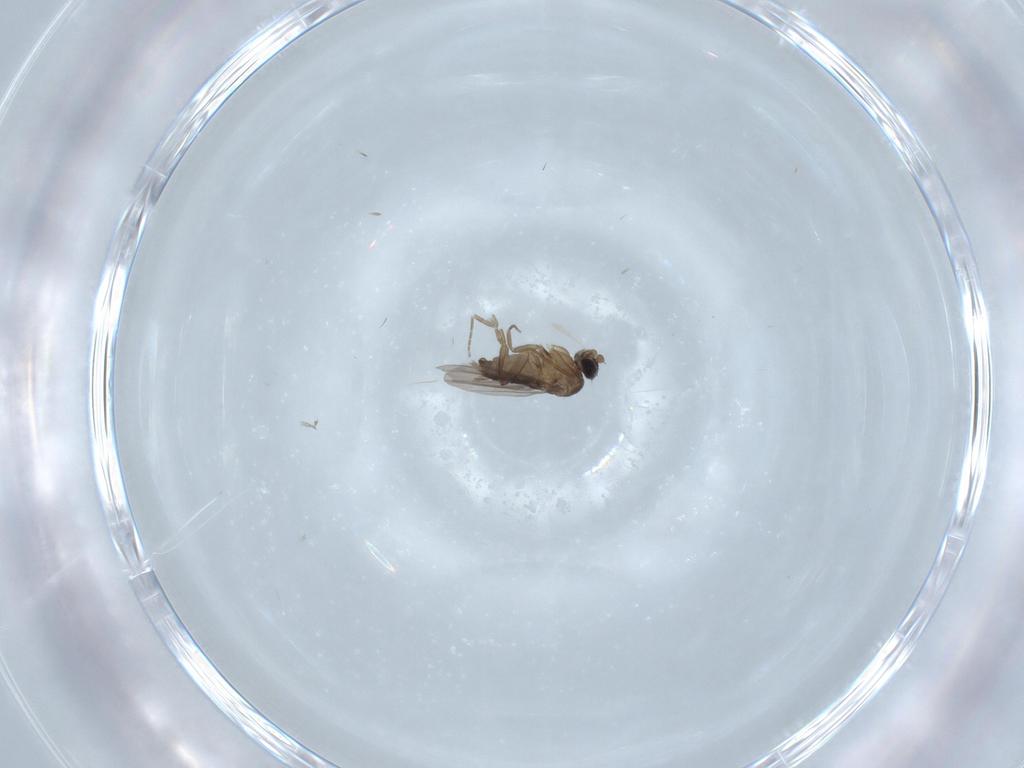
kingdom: Animalia
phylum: Arthropoda
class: Insecta
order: Diptera
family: Phoridae
